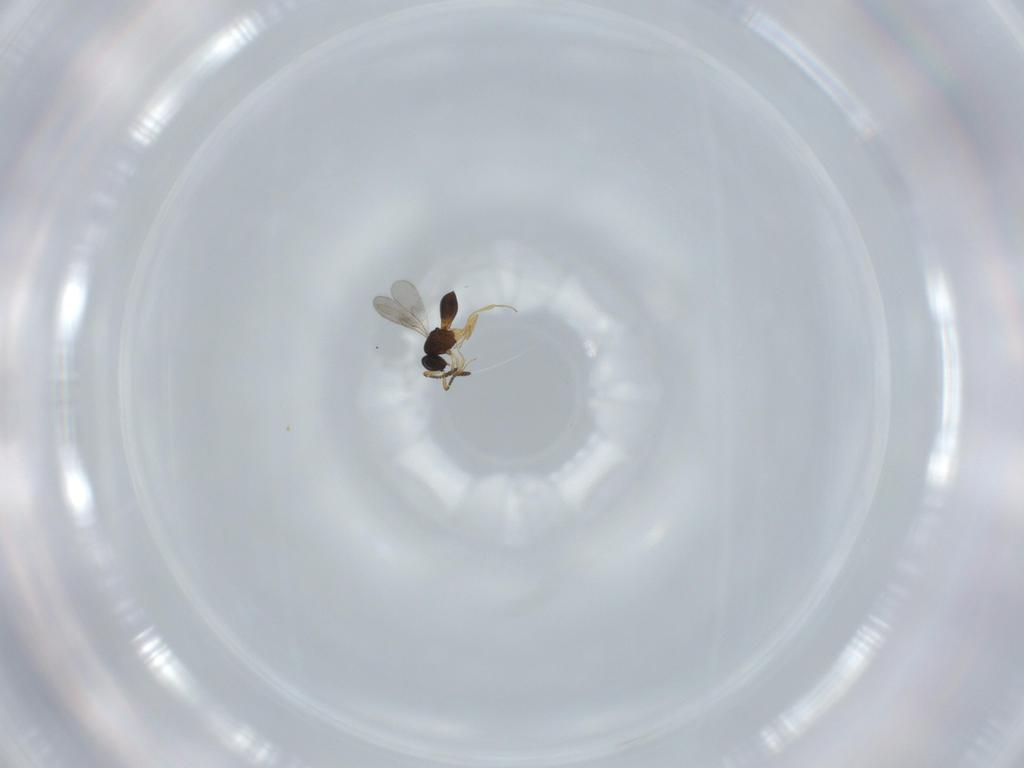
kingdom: Animalia
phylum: Arthropoda
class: Insecta
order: Hymenoptera
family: Scelionidae
